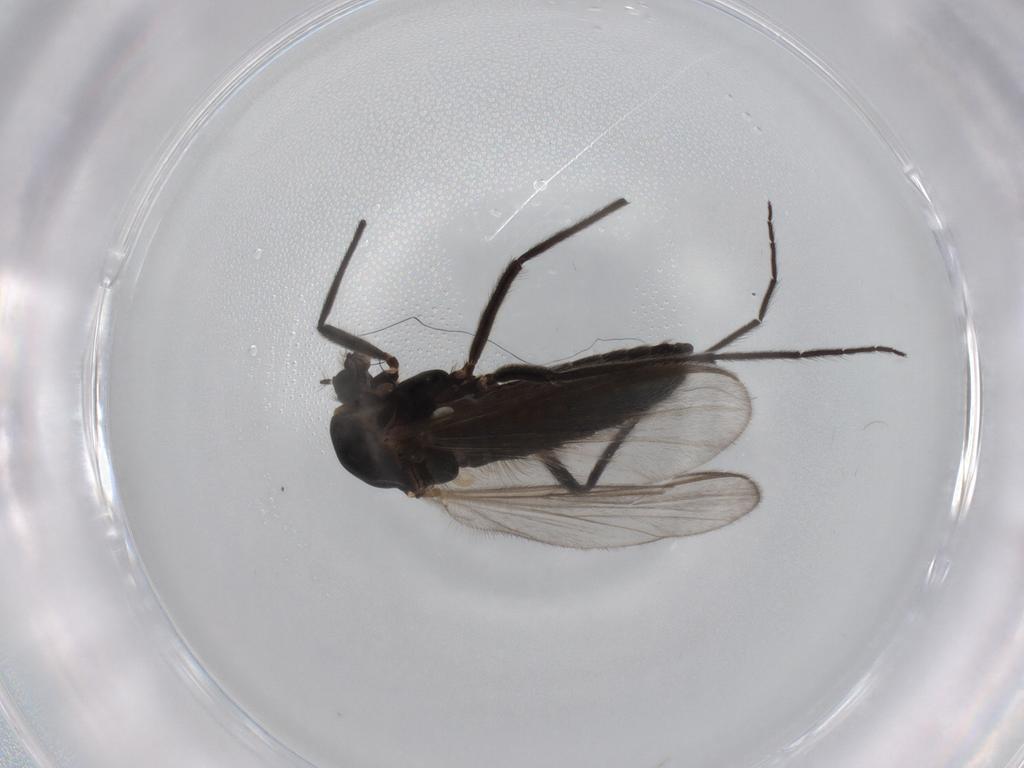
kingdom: Animalia
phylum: Arthropoda
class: Insecta
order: Diptera
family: Chironomidae
